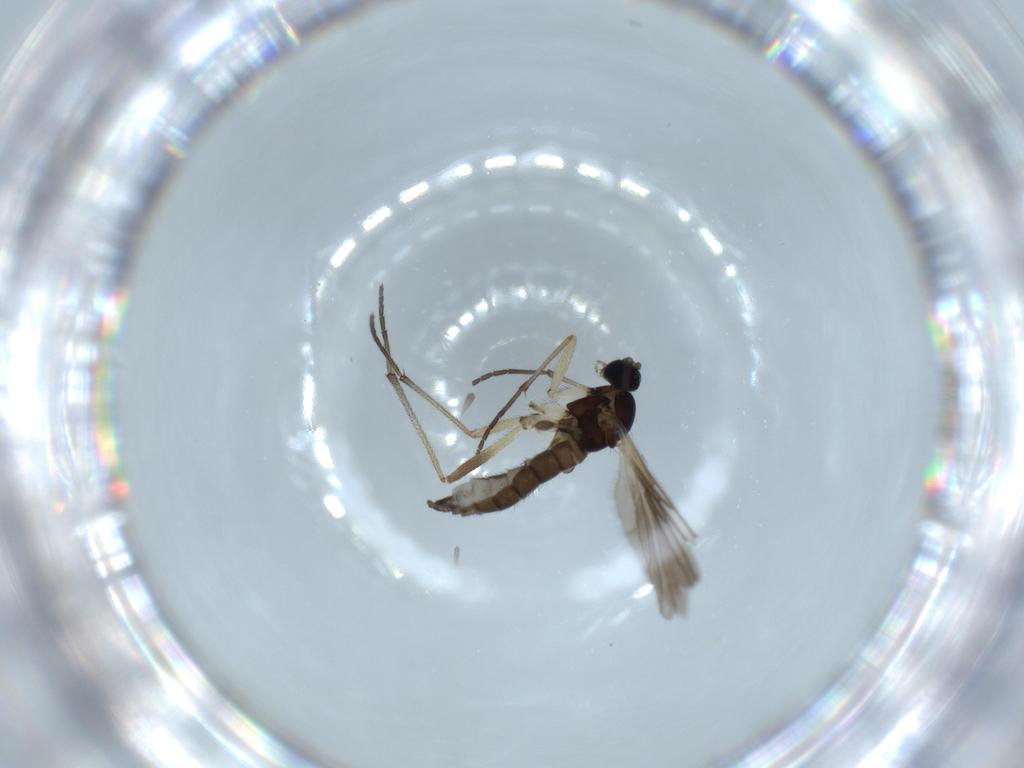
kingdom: Animalia
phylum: Arthropoda
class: Insecta
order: Diptera
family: Sciaridae
